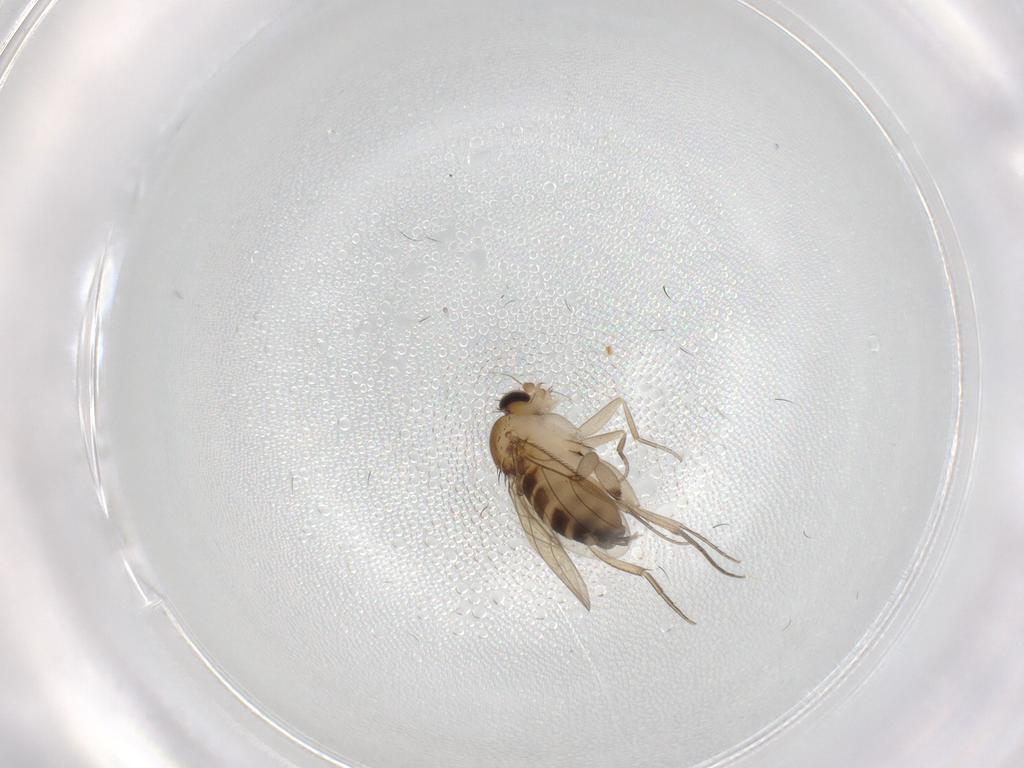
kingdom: Animalia
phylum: Arthropoda
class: Insecta
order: Diptera
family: Phoridae
